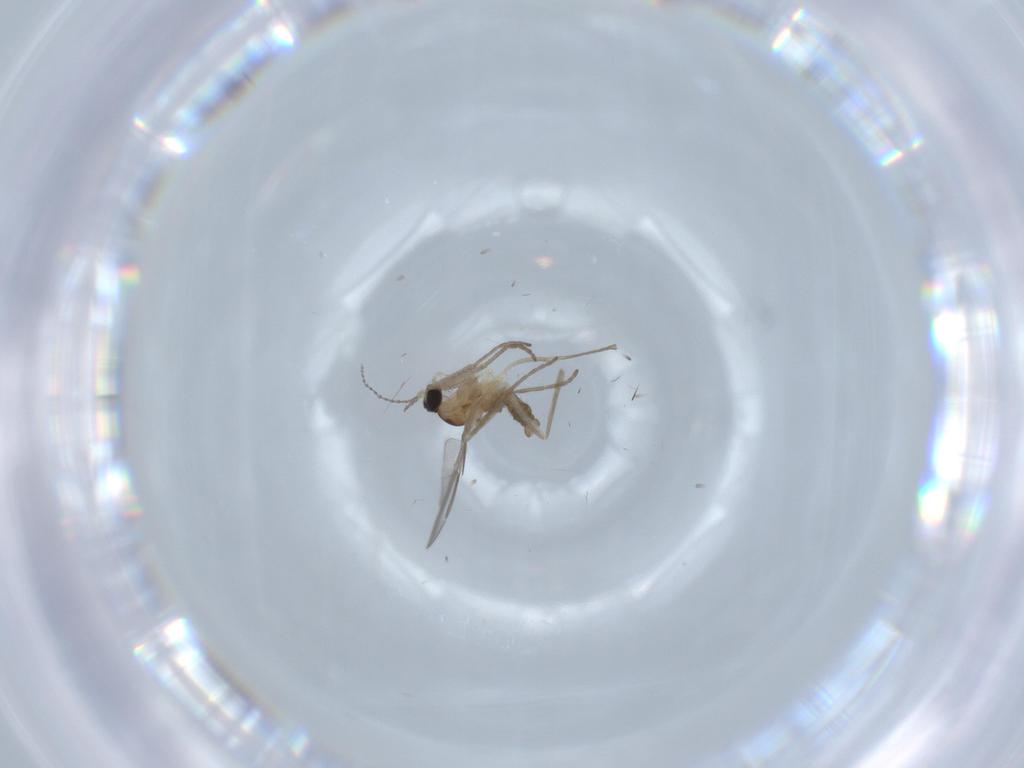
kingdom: Animalia
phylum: Arthropoda
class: Insecta
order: Diptera
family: Cecidomyiidae
